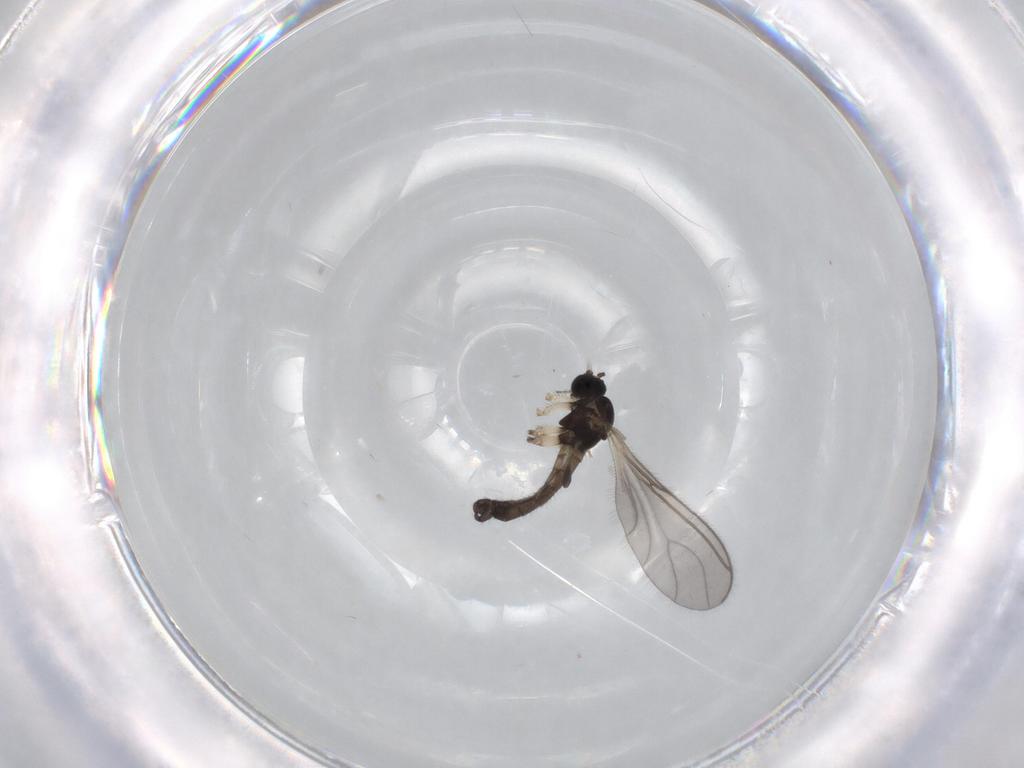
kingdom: Animalia
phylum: Arthropoda
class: Insecta
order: Diptera
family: Sciaridae
